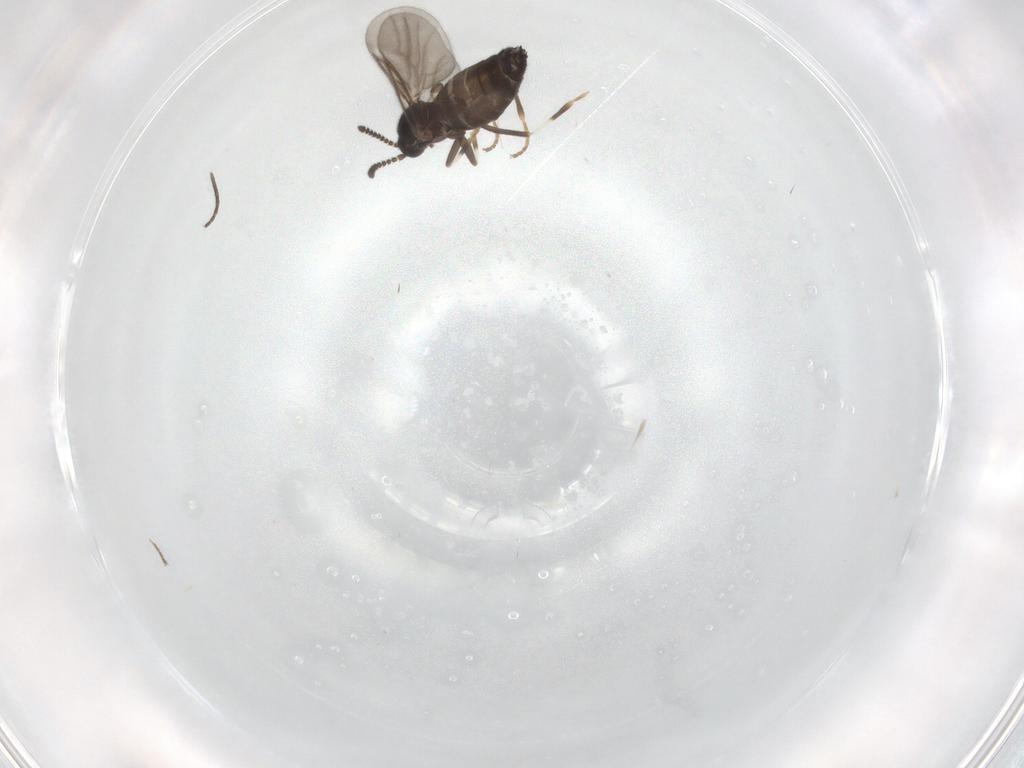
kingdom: Animalia
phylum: Arthropoda
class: Insecta
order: Diptera
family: Scatopsidae
